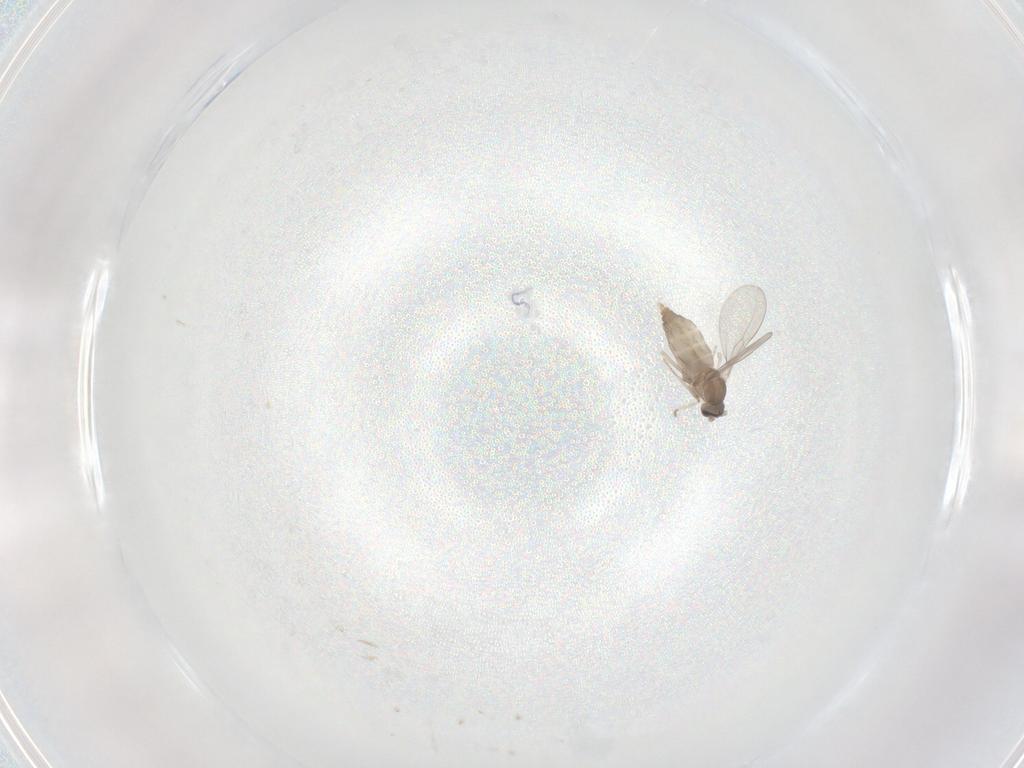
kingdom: Animalia
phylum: Arthropoda
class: Insecta
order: Diptera
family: Cecidomyiidae
